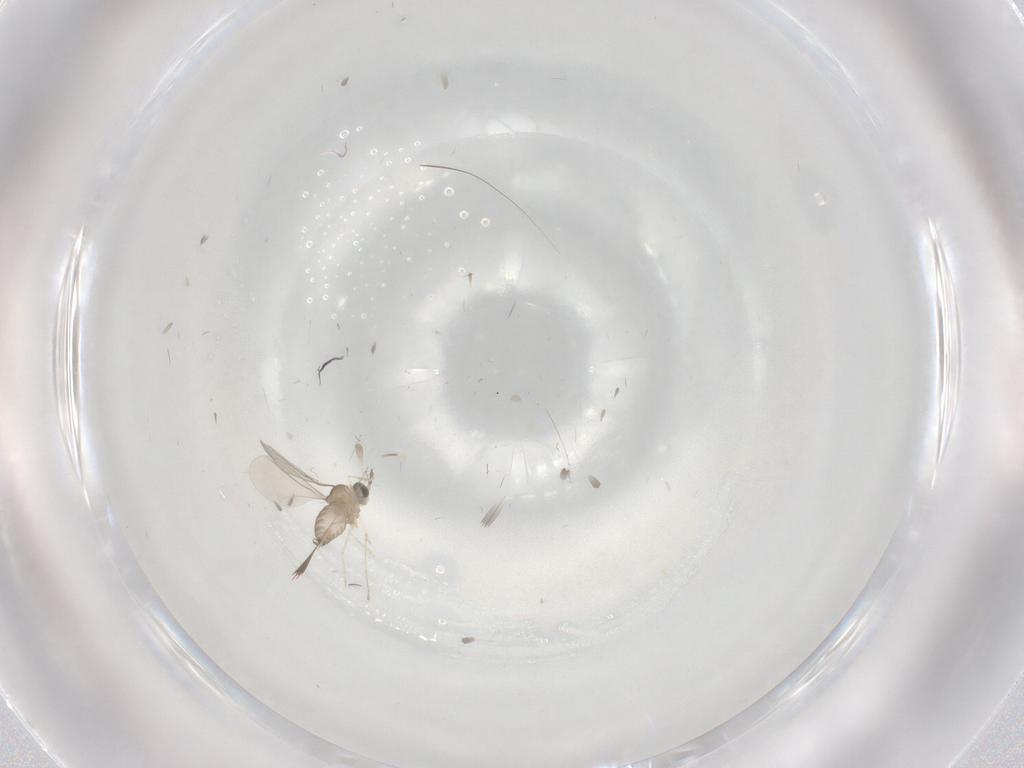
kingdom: Animalia
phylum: Arthropoda
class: Insecta
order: Diptera
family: Cecidomyiidae
